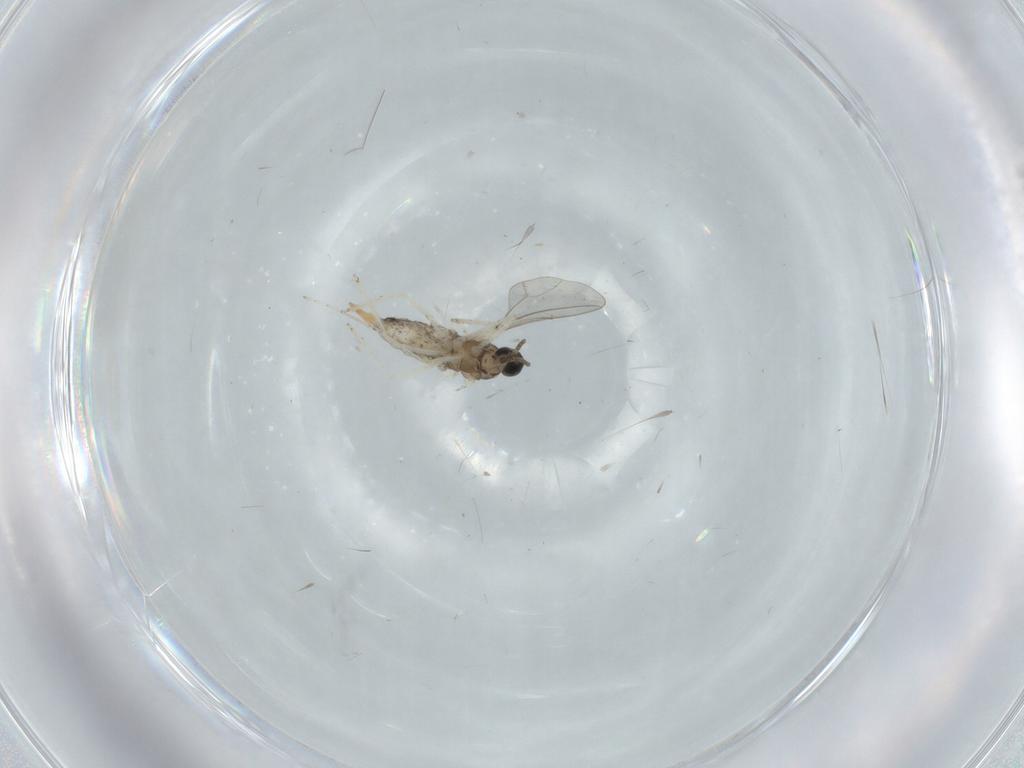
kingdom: Animalia
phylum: Arthropoda
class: Insecta
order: Diptera
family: Cecidomyiidae
